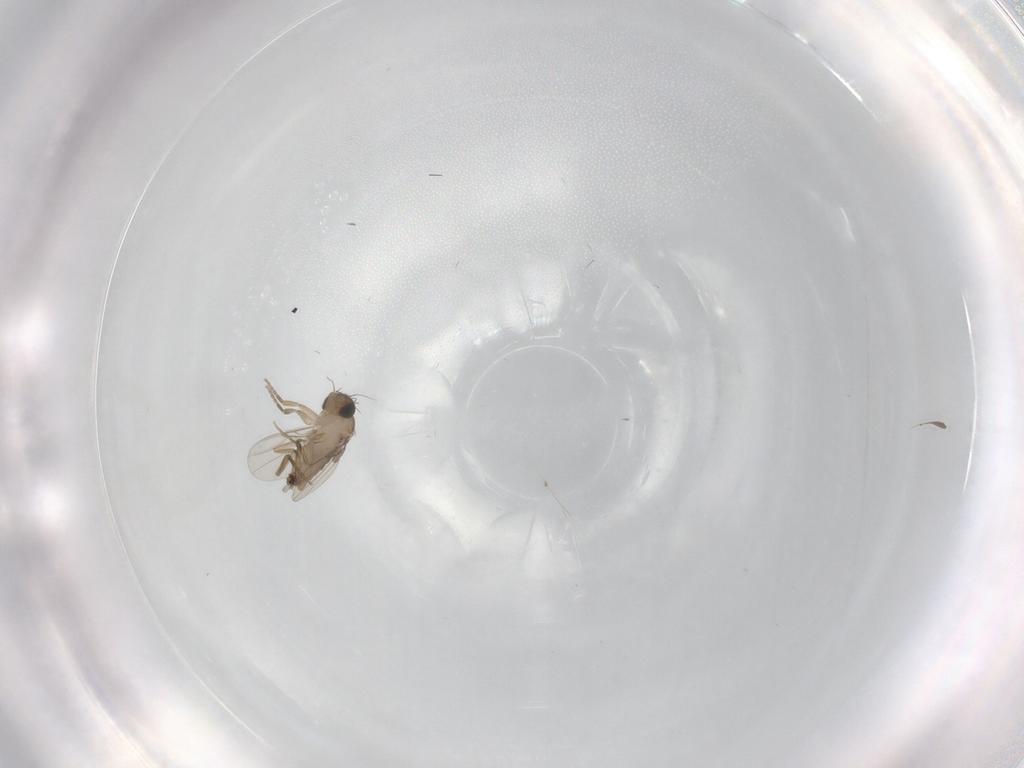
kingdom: Animalia
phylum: Arthropoda
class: Insecta
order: Diptera
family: Sciaridae
